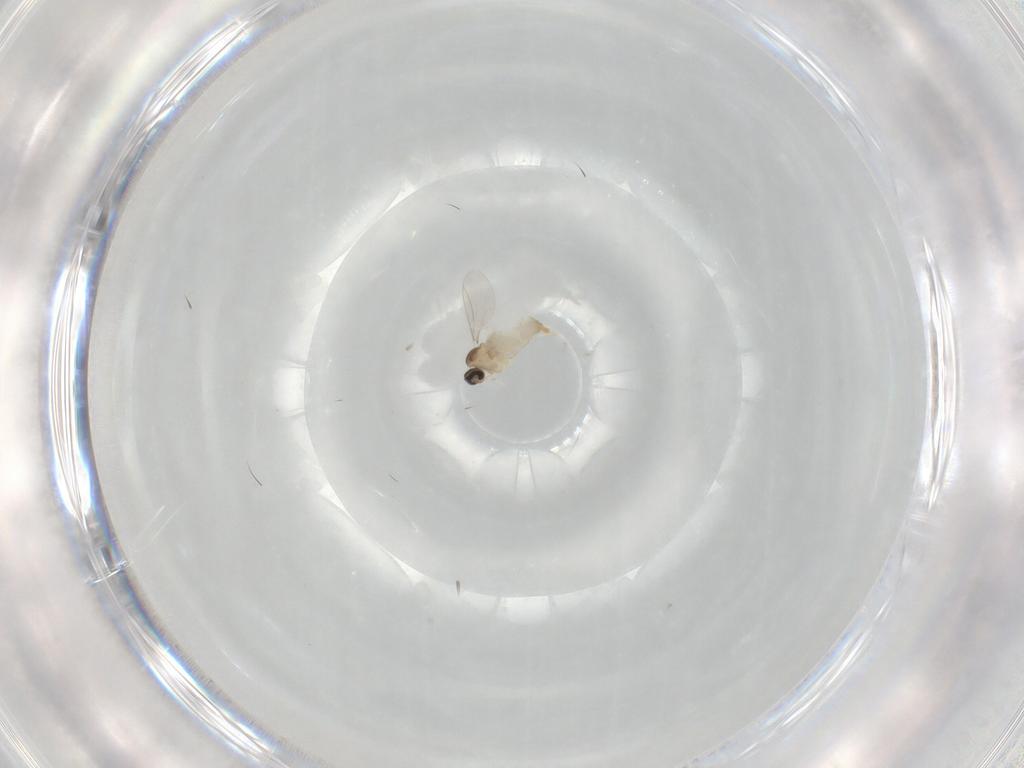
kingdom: Animalia
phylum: Arthropoda
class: Insecta
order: Diptera
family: Cecidomyiidae
